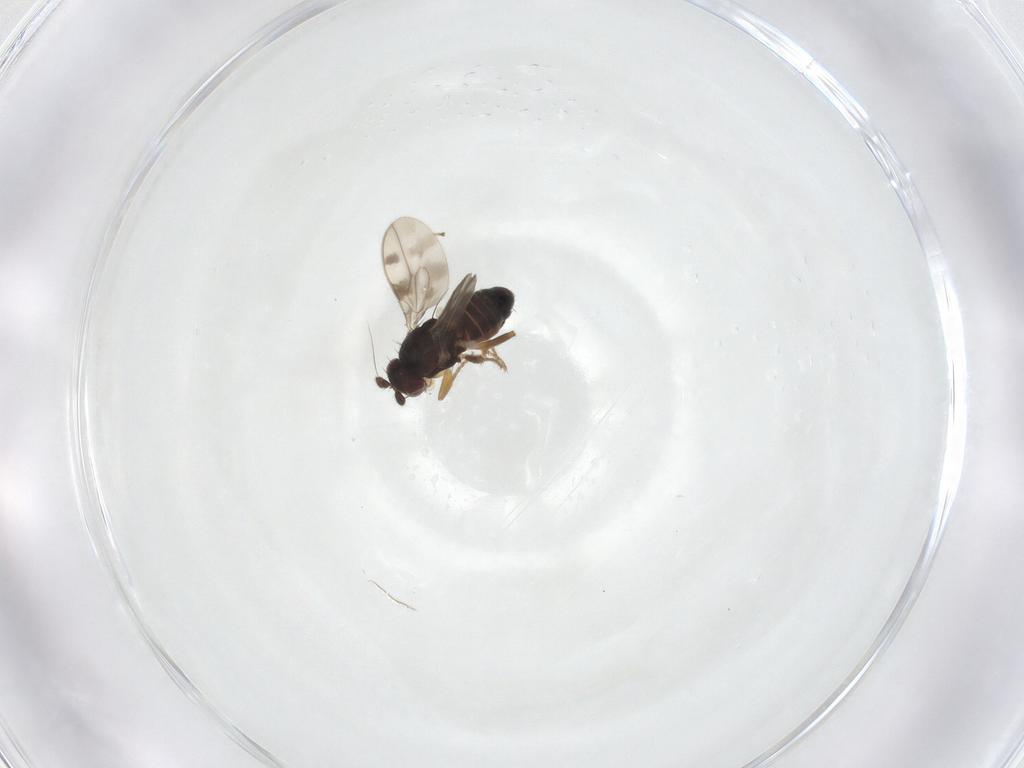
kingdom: Animalia
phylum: Arthropoda
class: Insecta
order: Diptera
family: Sphaeroceridae
